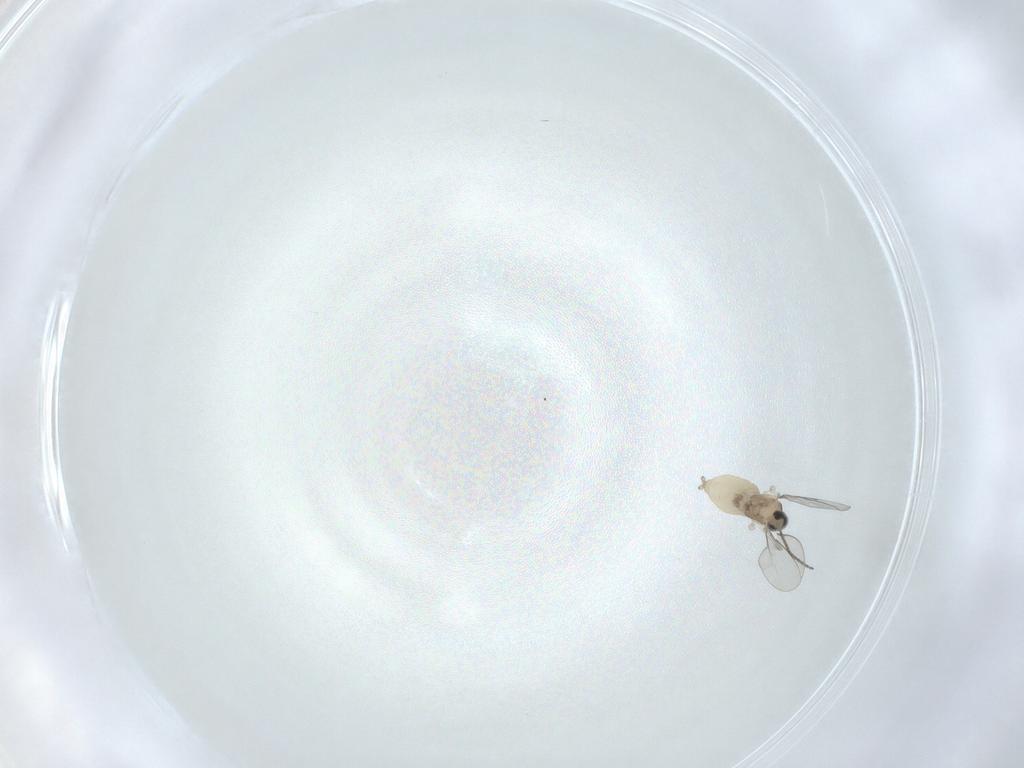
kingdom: Animalia
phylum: Arthropoda
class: Insecta
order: Diptera
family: Cecidomyiidae
